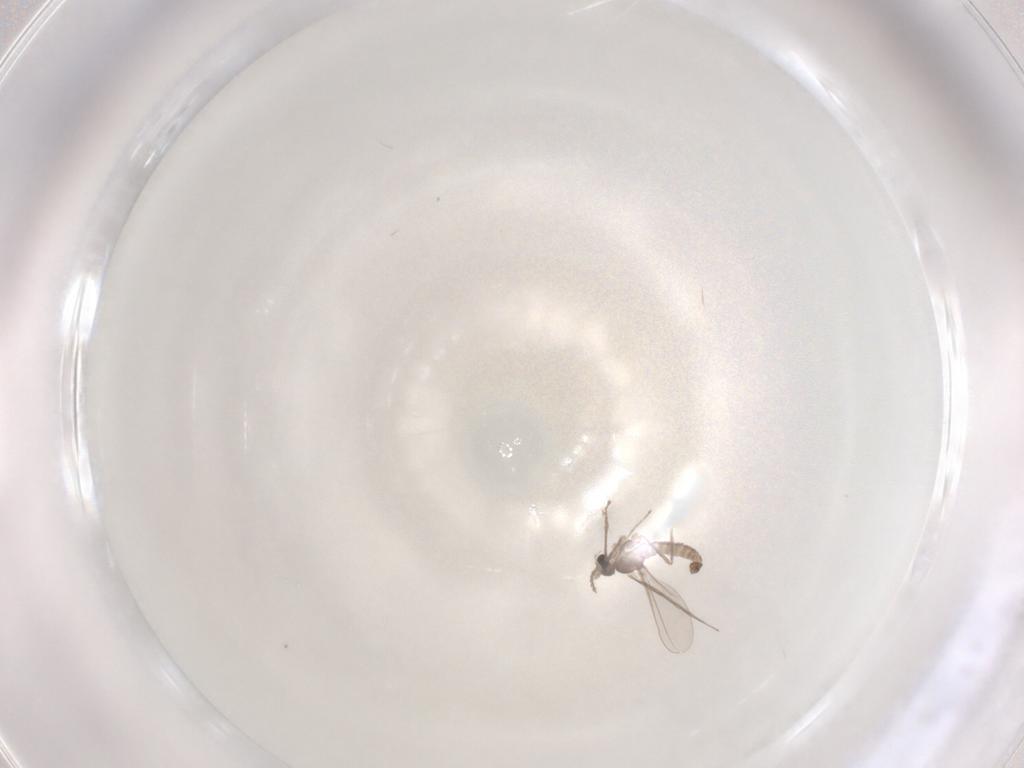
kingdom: Animalia
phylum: Arthropoda
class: Insecta
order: Diptera
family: Cecidomyiidae
